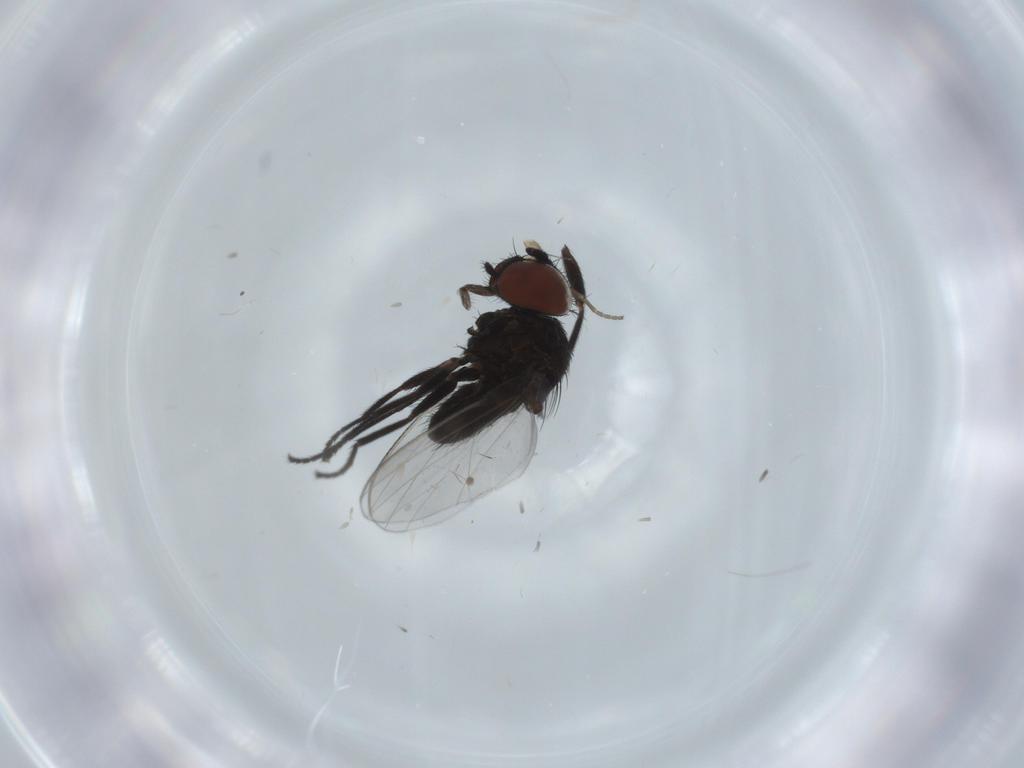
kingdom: Animalia
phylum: Arthropoda
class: Insecta
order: Diptera
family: Milichiidae
